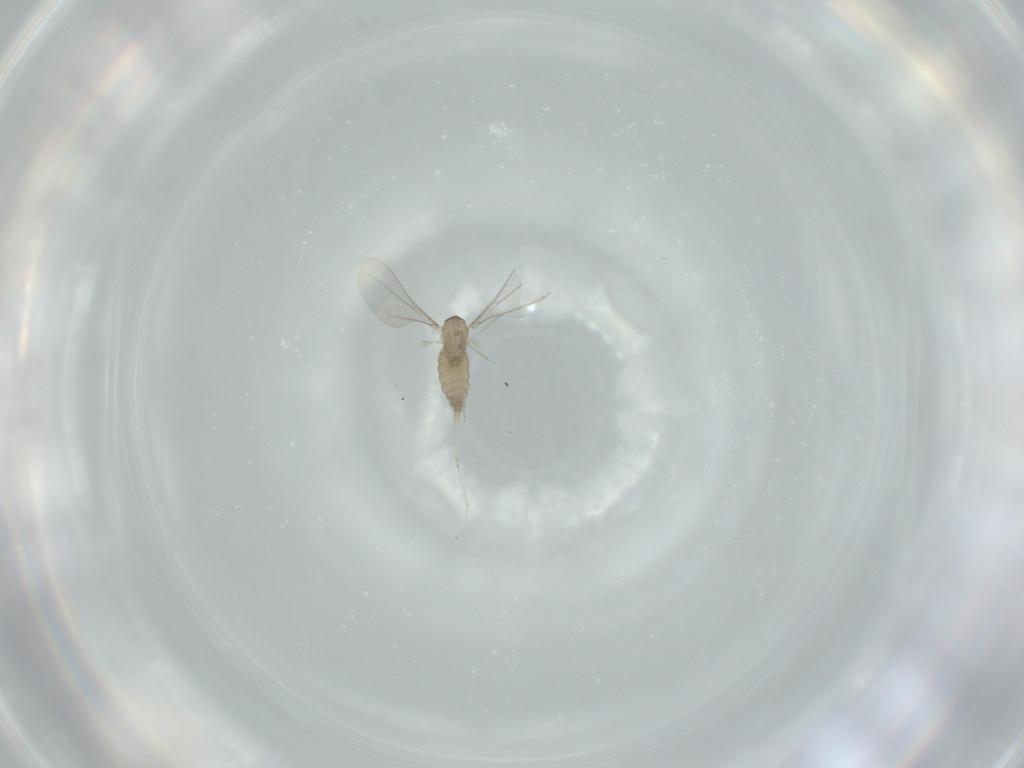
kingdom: Animalia
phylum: Arthropoda
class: Insecta
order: Diptera
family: Cecidomyiidae
